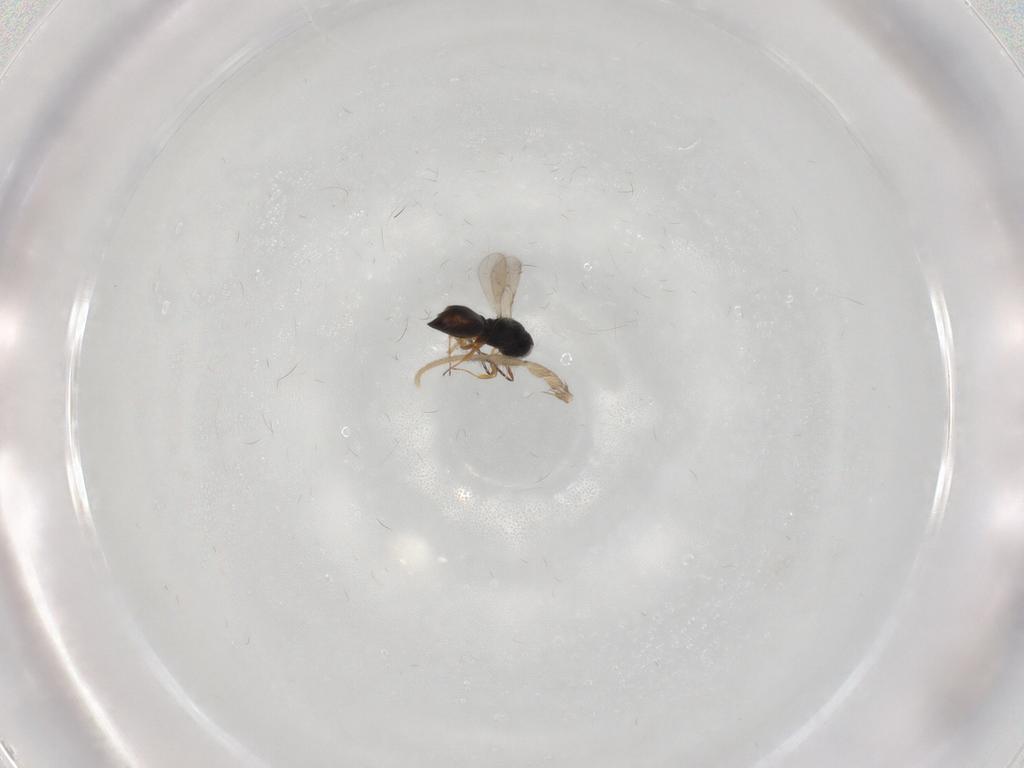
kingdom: Animalia
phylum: Arthropoda
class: Insecta
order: Hymenoptera
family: Scelionidae
